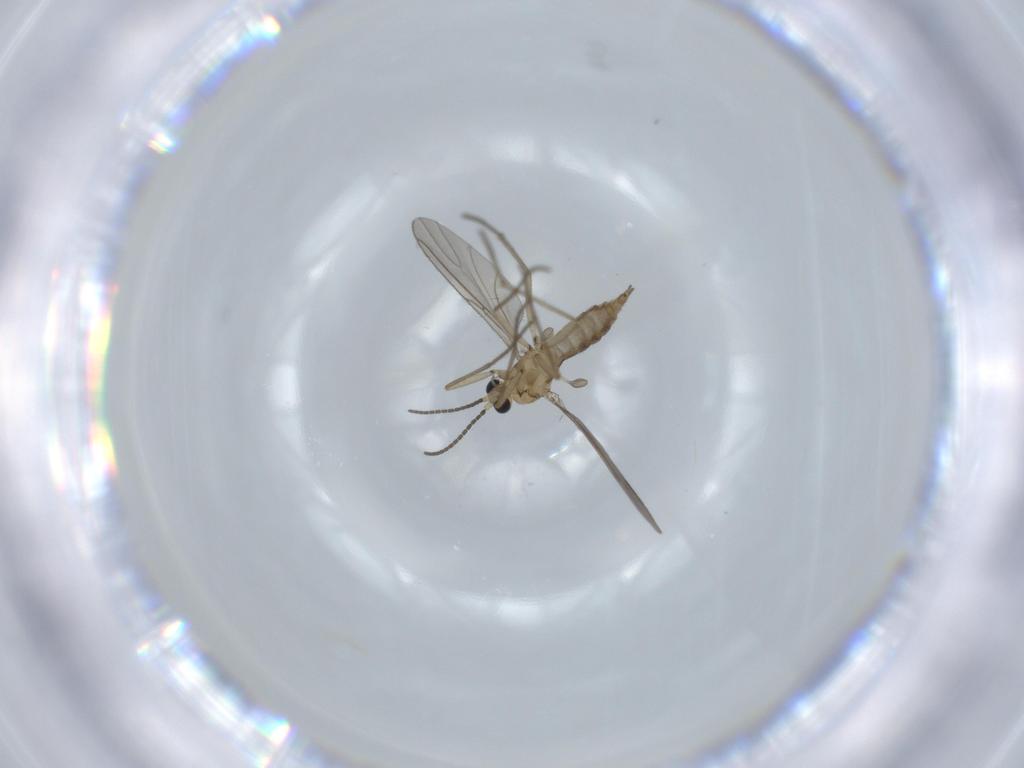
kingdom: Animalia
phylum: Arthropoda
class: Insecta
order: Diptera
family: Sciaridae
